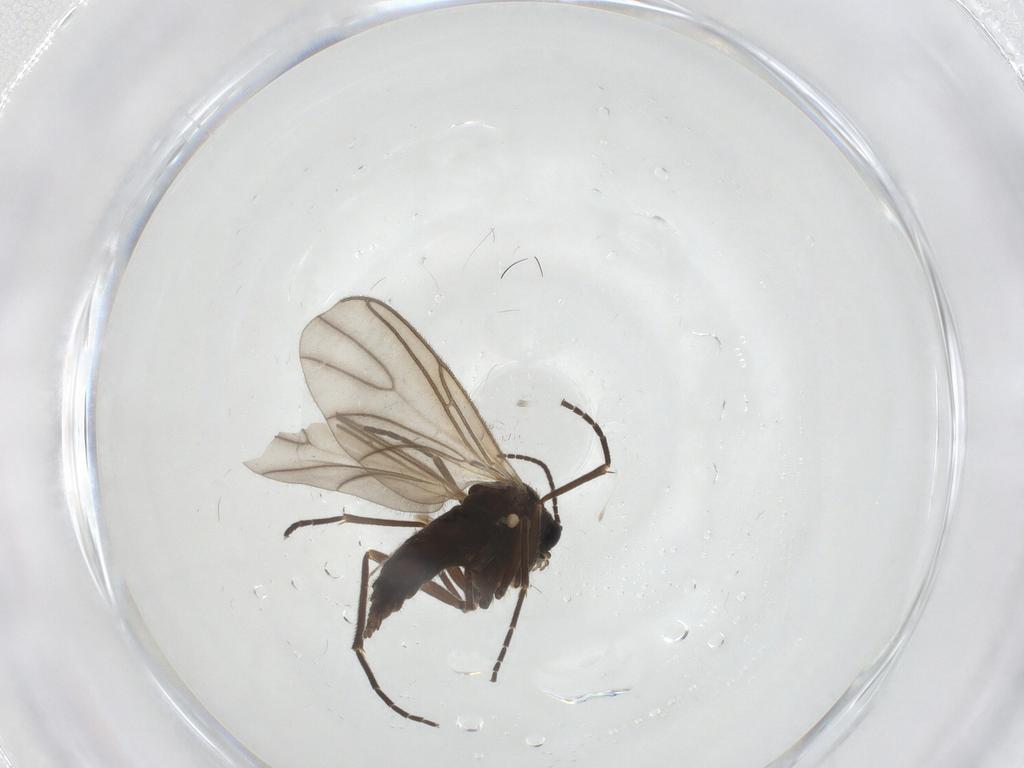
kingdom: Animalia
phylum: Arthropoda
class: Insecta
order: Diptera
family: Sciaridae
